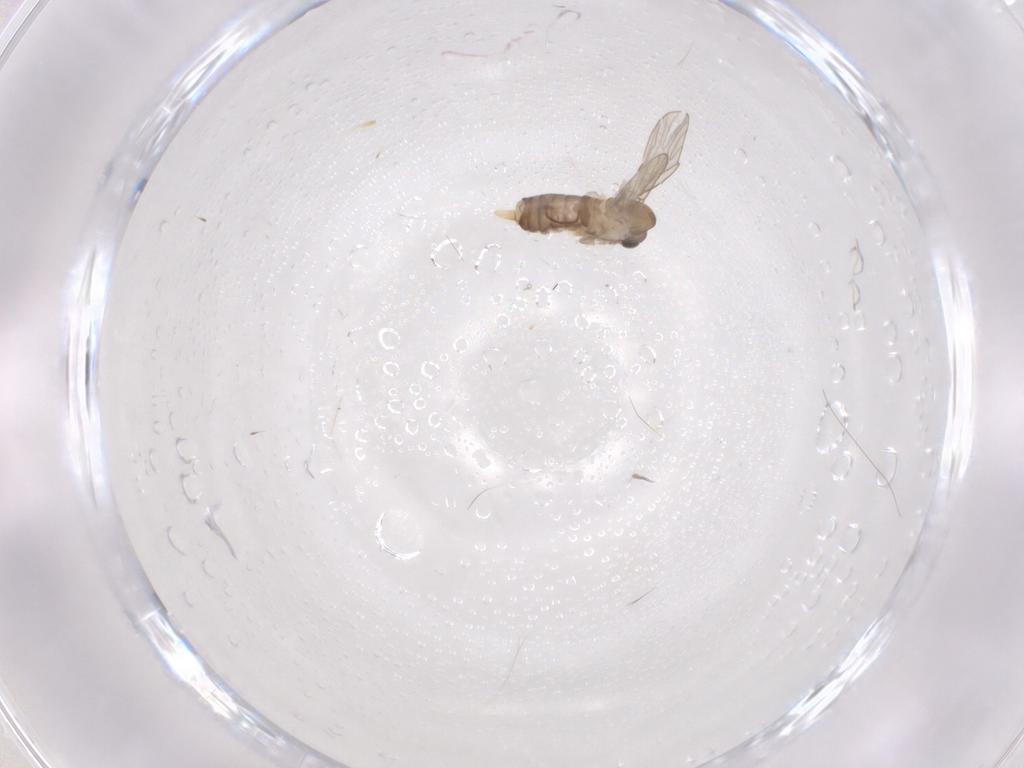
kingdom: Animalia
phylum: Arthropoda
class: Insecta
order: Diptera
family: Psychodidae
